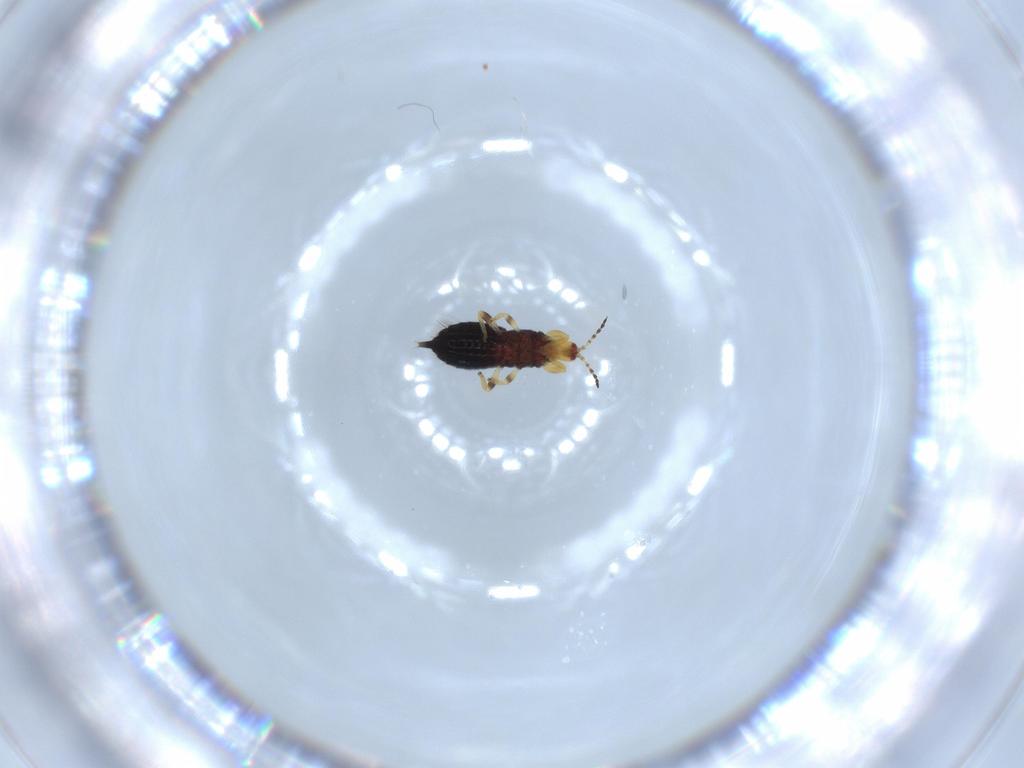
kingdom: Animalia
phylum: Arthropoda
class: Insecta
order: Thysanoptera
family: Phlaeothripidae
